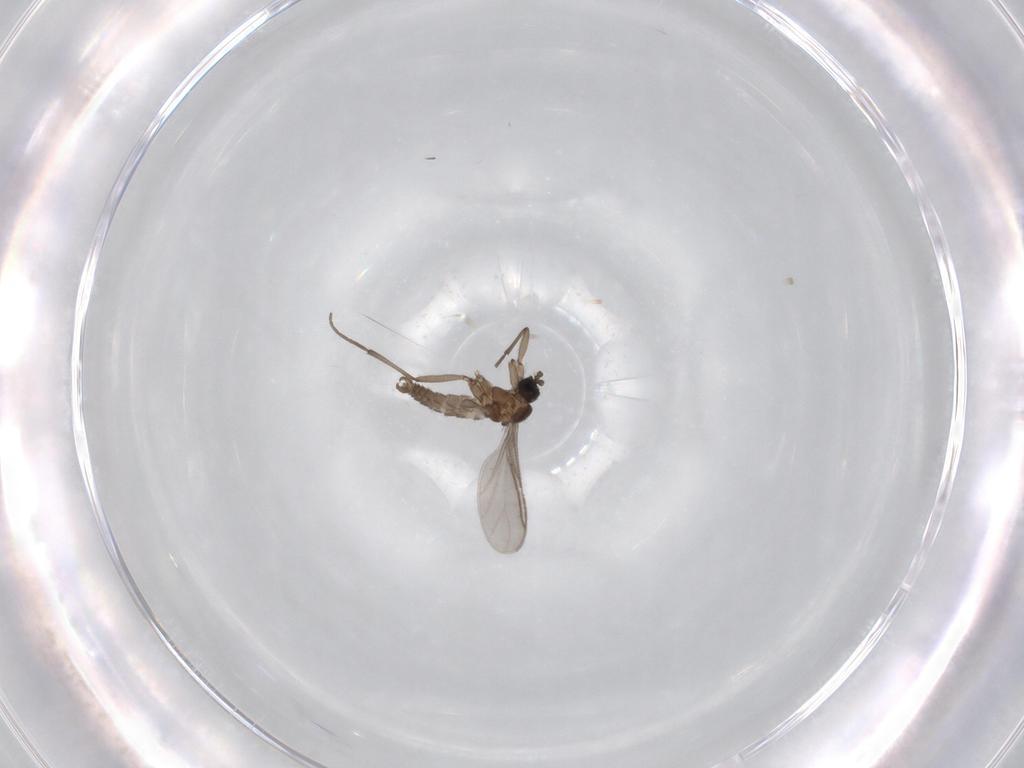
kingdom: Animalia
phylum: Arthropoda
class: Insecta
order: Diptera
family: Sciaridae
